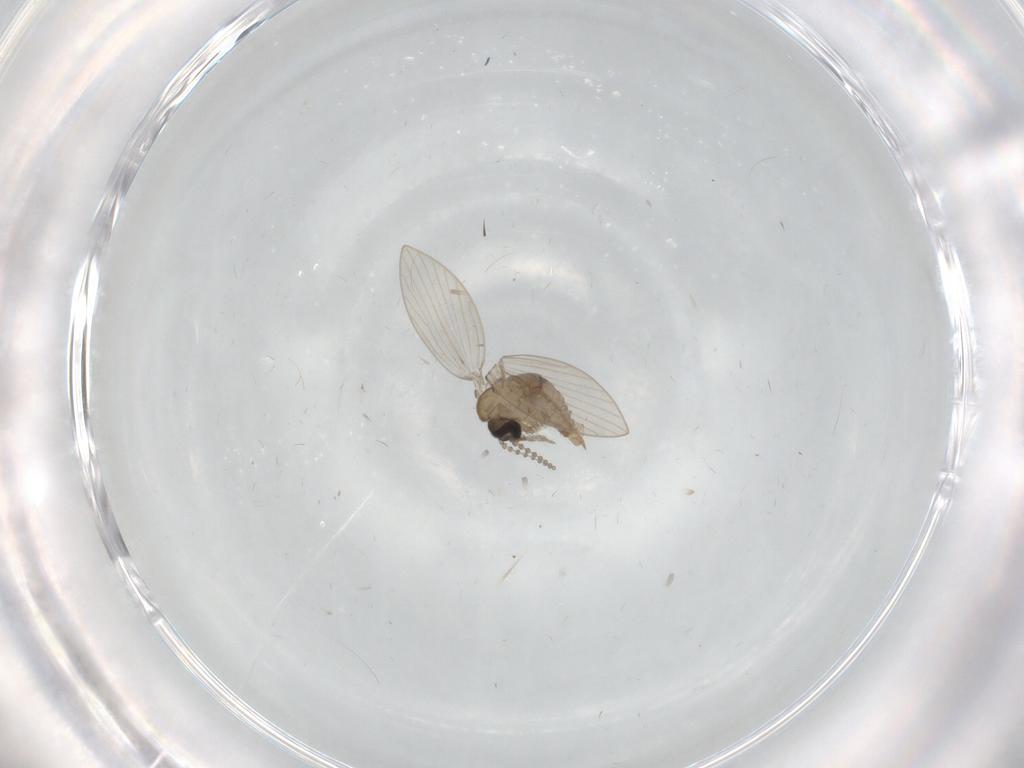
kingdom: Animalia
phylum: Arthropoda
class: Insecta
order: Diptera
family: Psychodidae
